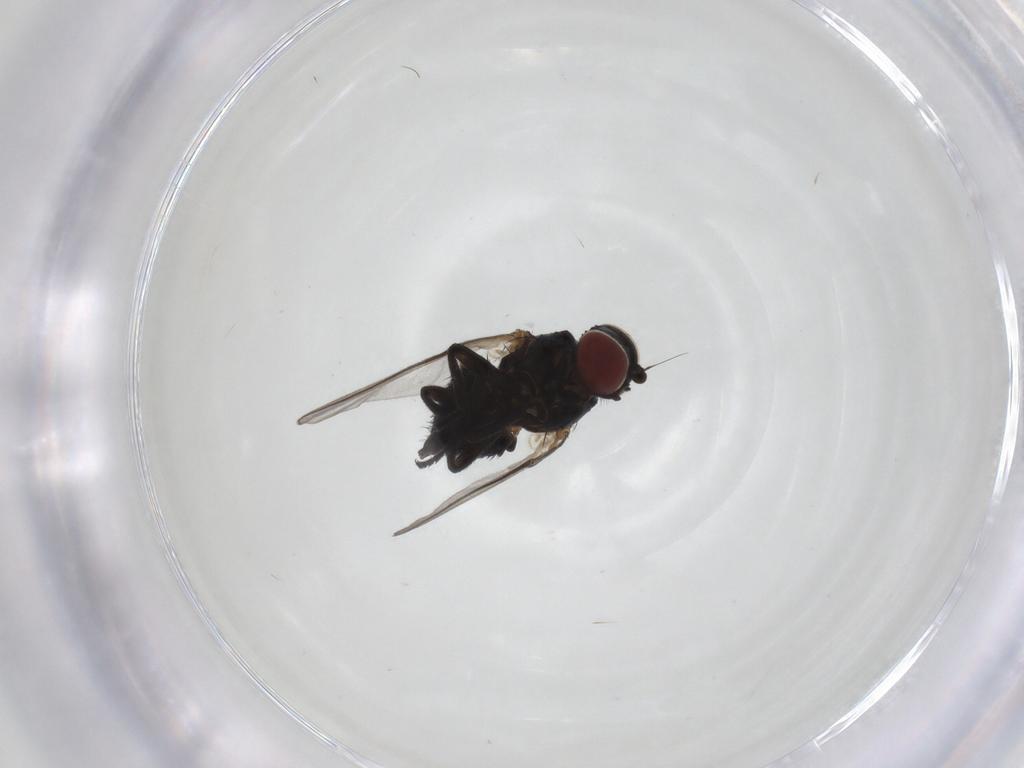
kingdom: Animalia
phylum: Arthropoda
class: Insecta
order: Diptera
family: Agromyzidae
